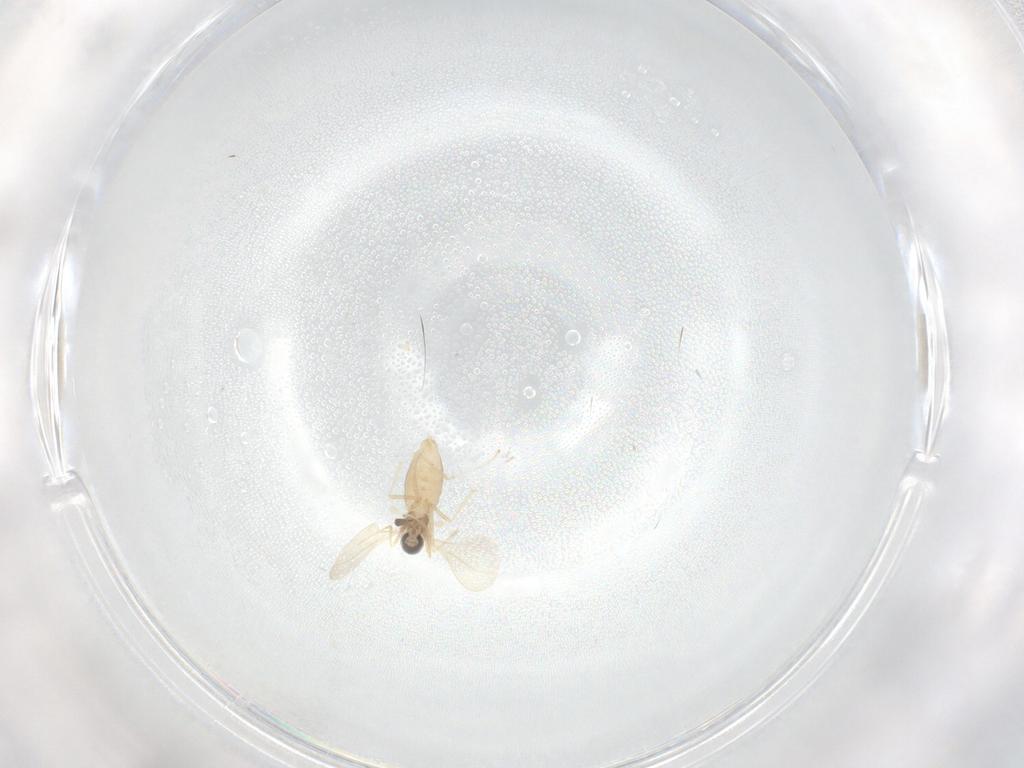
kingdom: Animalia
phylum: Arthropoda
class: Insecta
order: Diptera
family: Cecidomyiidae
